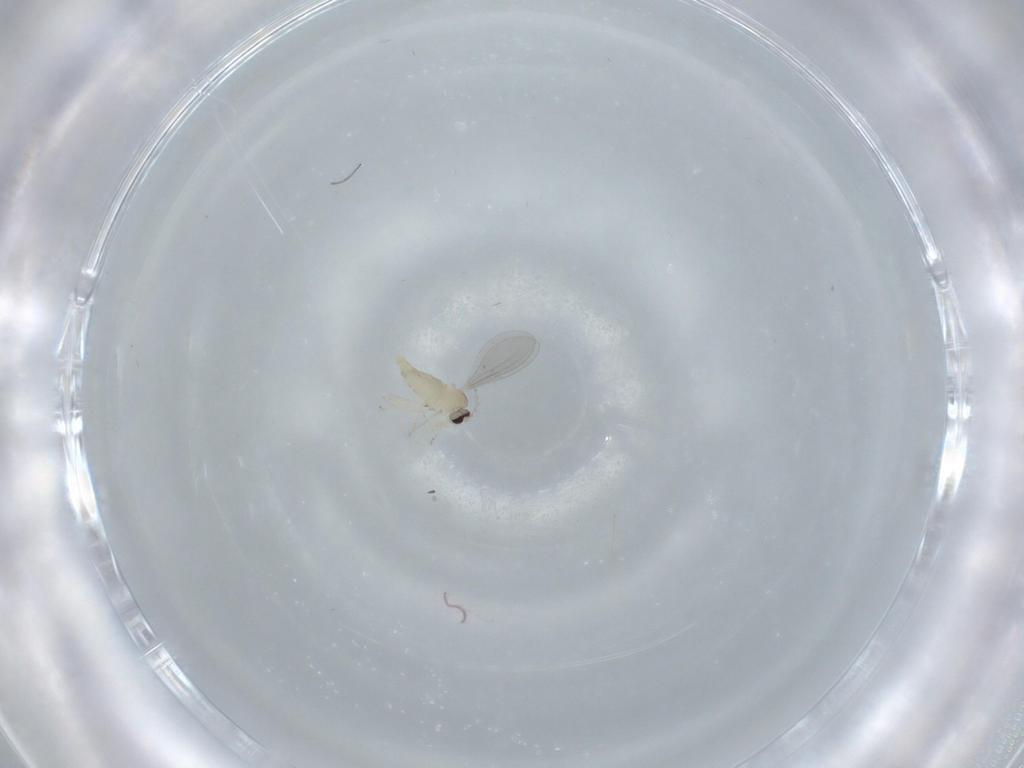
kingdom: Animalia
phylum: Arthropoda
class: Insecta
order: Diptera
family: Cecidomyiidae
